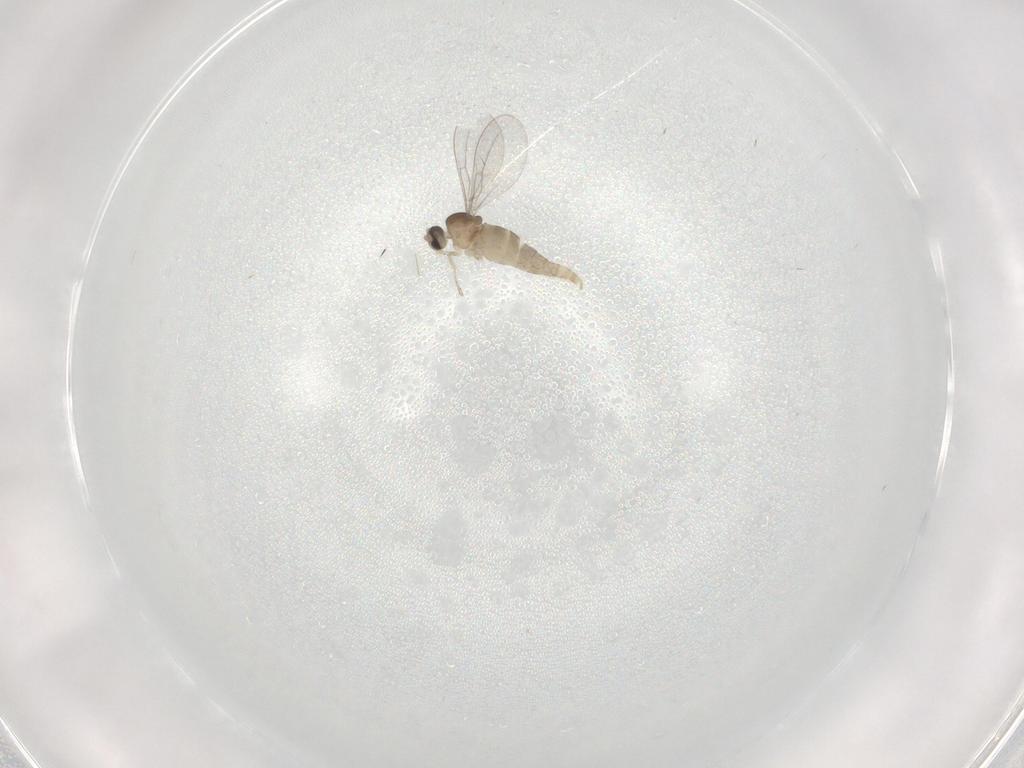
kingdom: Animalia
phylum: Arthropoda
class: Insecta
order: Diptera
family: Cecidomyiidae
